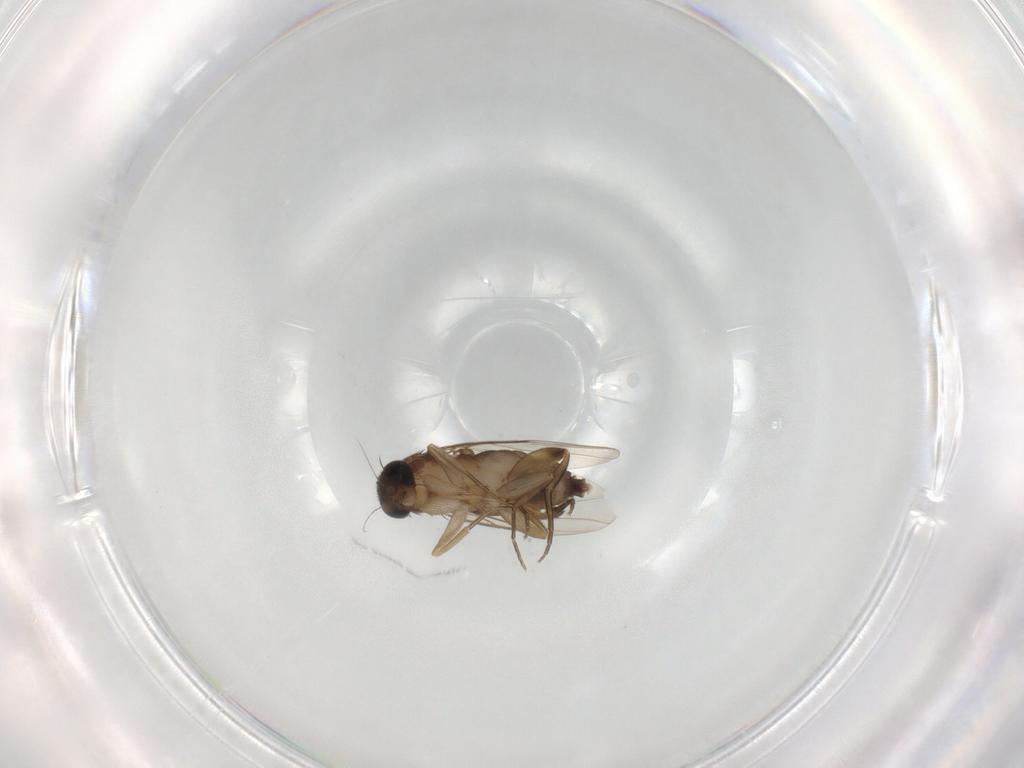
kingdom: Animalia
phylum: Arthropoda
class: Insecta
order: Diptera
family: Phoridae
